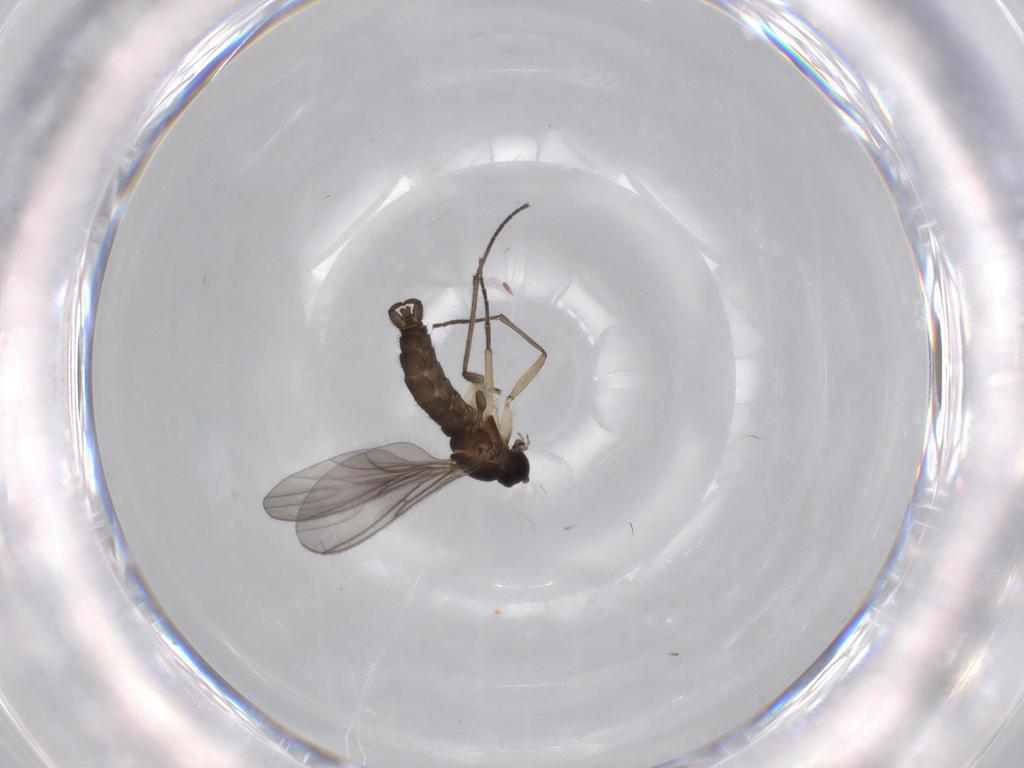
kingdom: Animalia
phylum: Arthropoda
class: Insecta
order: Diptera
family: Sciaridae
